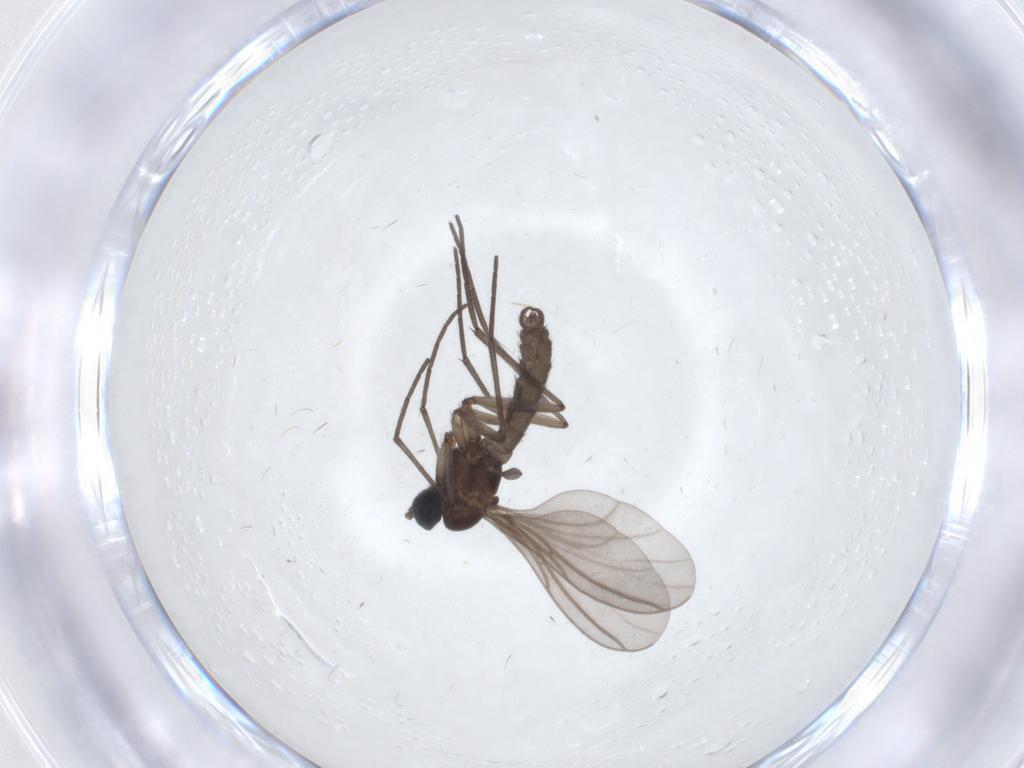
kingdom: Animalia
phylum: Arthropoda
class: Insecta
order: Diptera
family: Sciaridae
